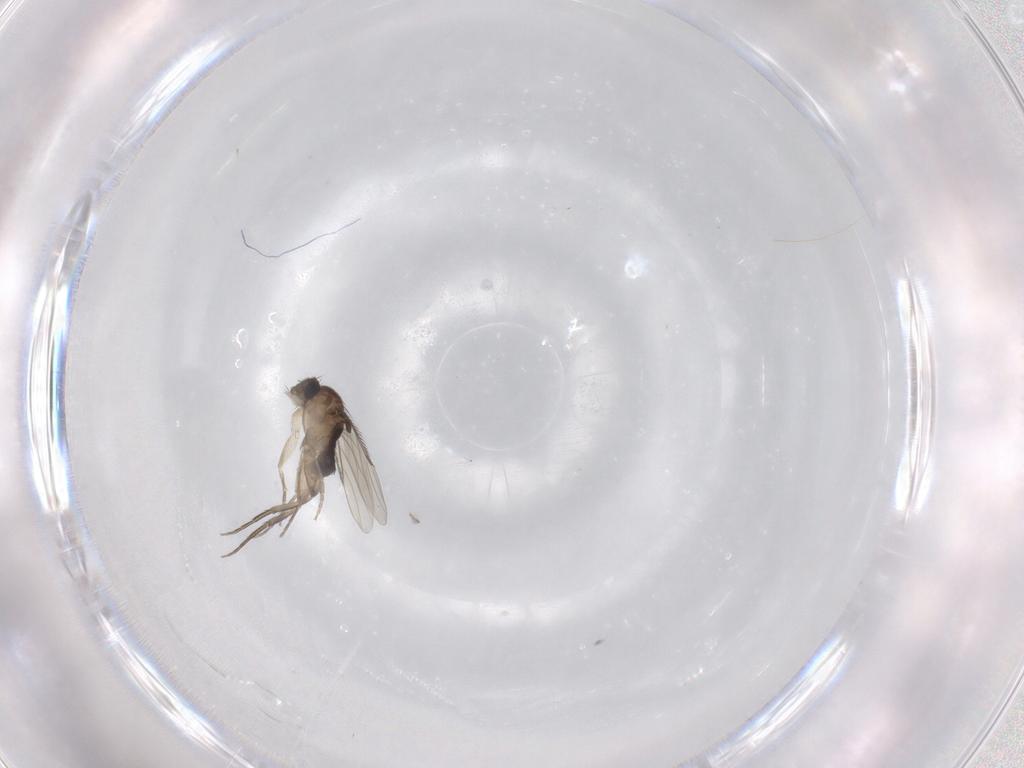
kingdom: Animalia
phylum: Arthropoda
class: Insecta
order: Diptera
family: Phoridae
